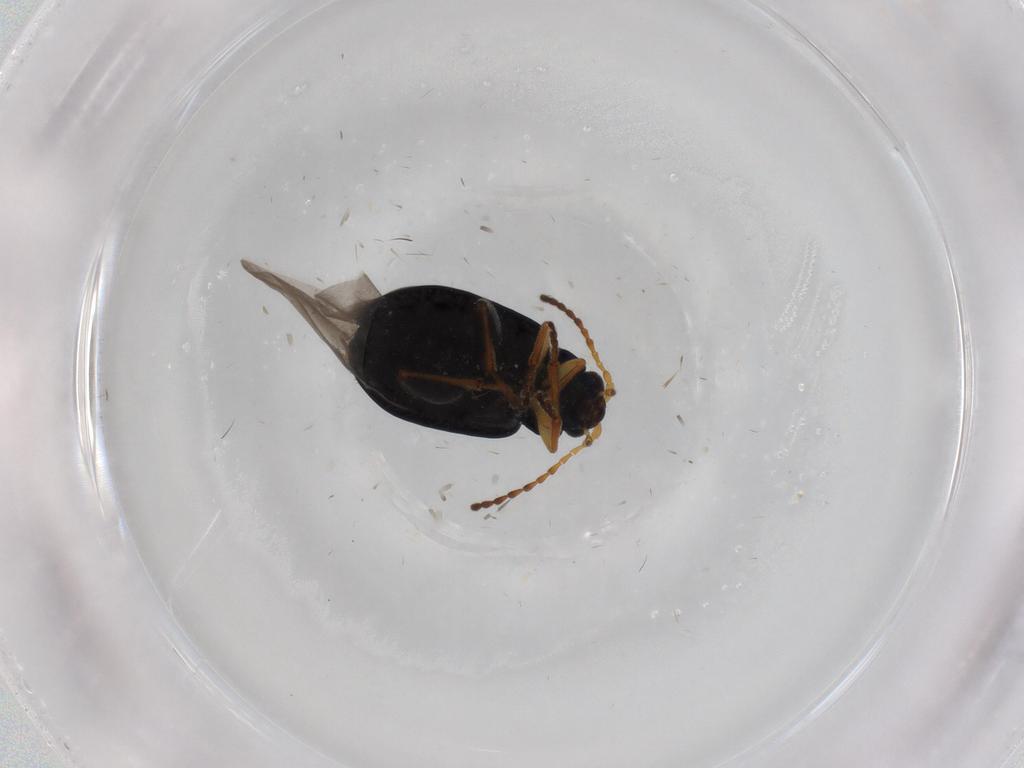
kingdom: Animalia
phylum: Arthropoda
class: Insecta
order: Coleoptera
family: Chrysomelidae
